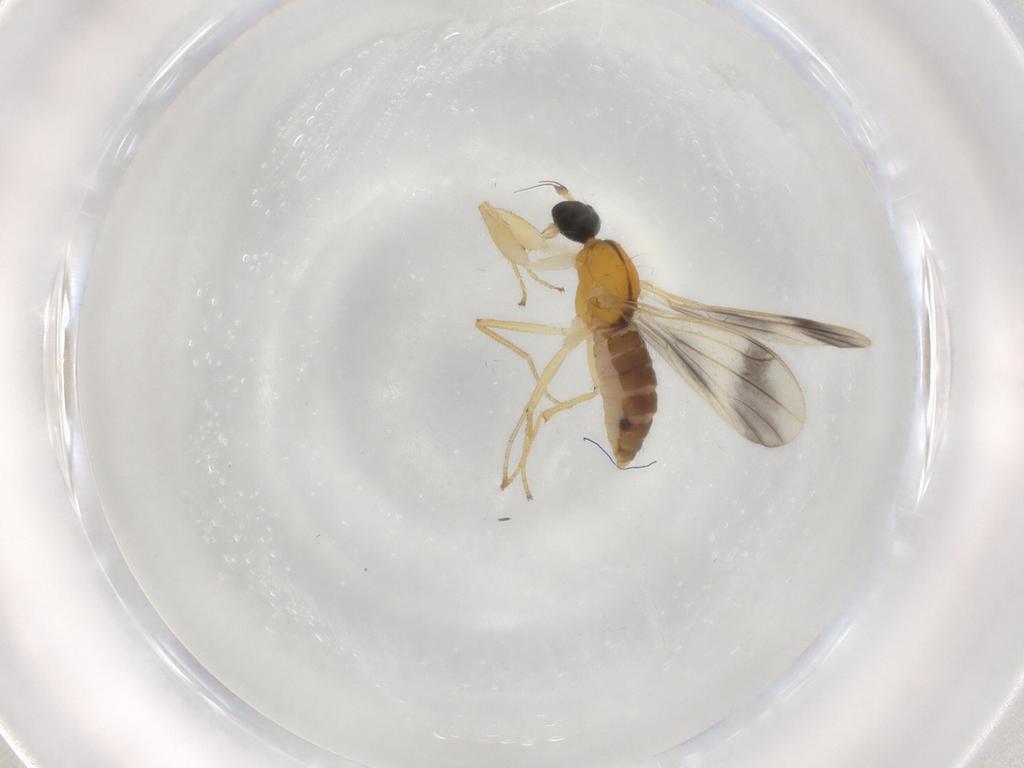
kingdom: Animalia
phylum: Arthropoda
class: Insecta
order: Diptera
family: Empididae
